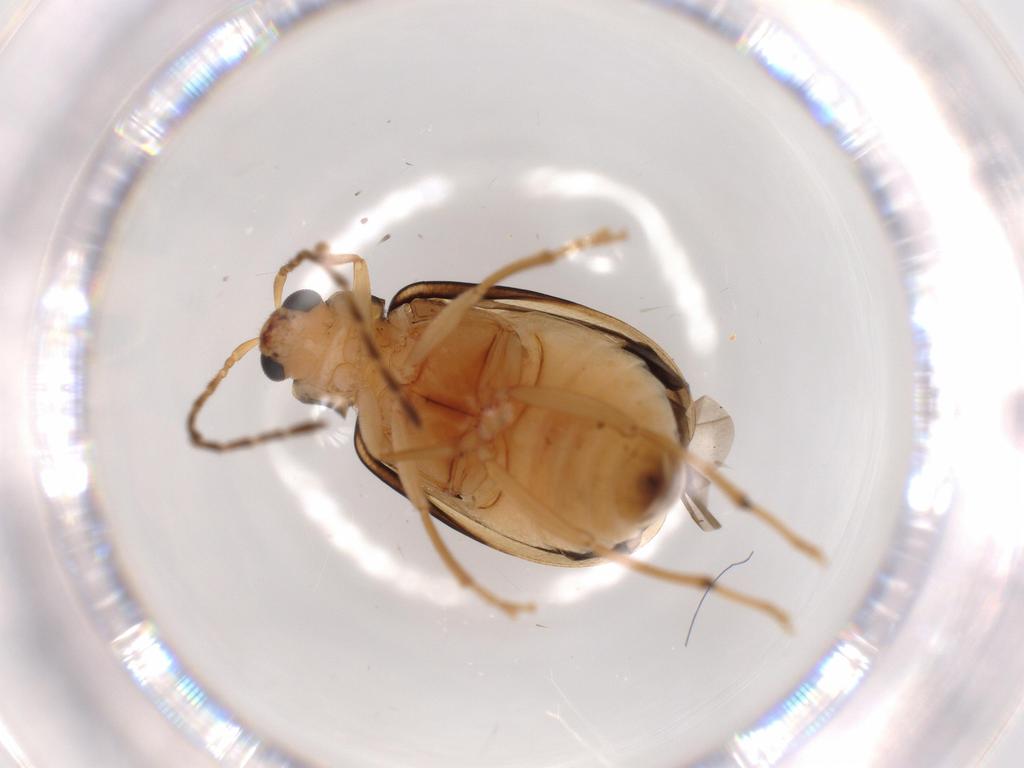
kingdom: Animalia
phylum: Arthropoda
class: Insecta
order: Coleoptera
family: Chrysomelidae
